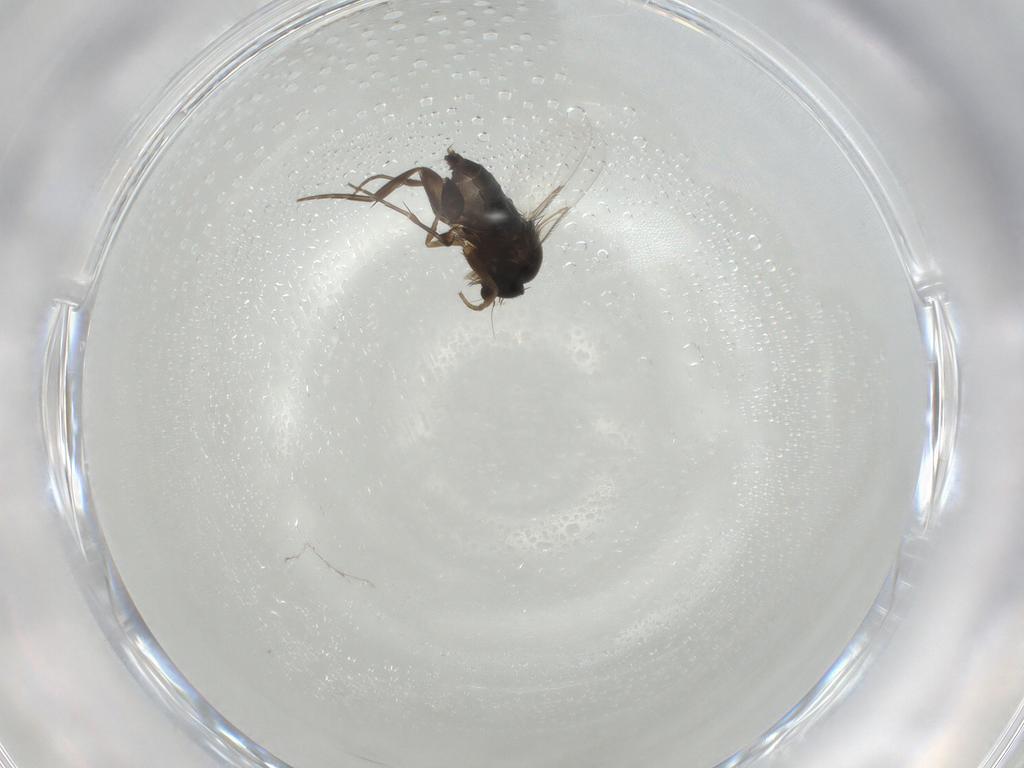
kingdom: Animalia
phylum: Arthropoda
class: Insecta
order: Diptera
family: Phoridae
